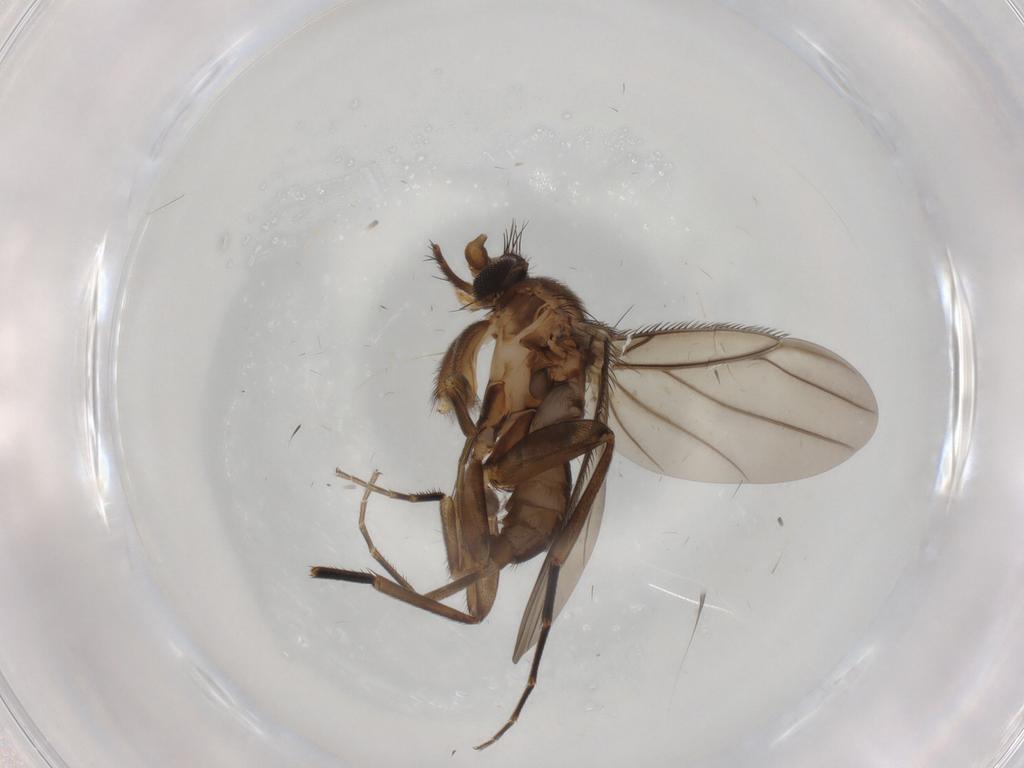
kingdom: Animalia
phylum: Arthropoda
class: Insecta
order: Diptera
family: Phoridae
